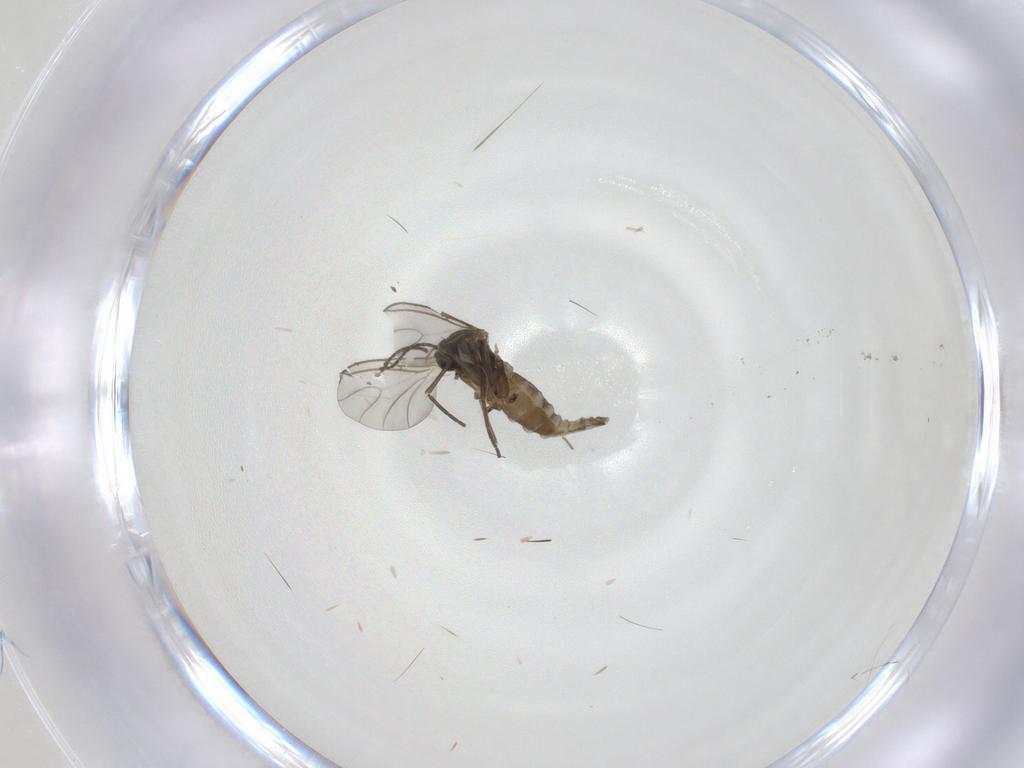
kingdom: Animalia
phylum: Arthropoda
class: Insecta
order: Diptera
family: Sciaridae
